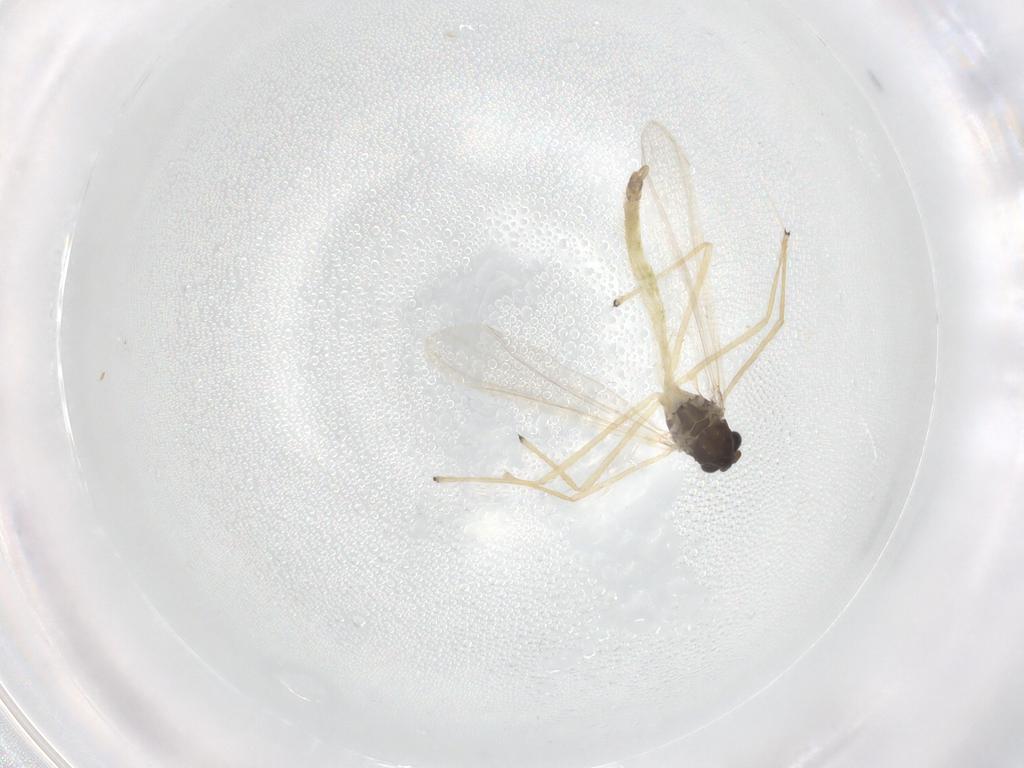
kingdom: Animalia
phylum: Arthropoda
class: Insecta
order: Diptera
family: Chironomidae
